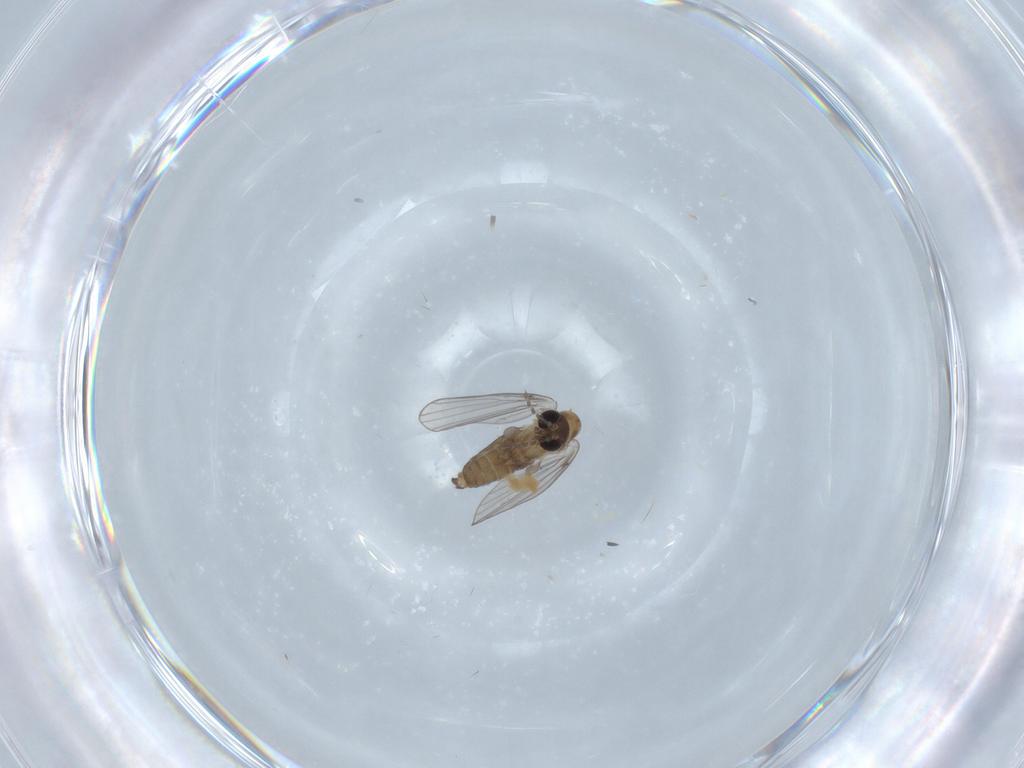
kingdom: Animalia
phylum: Arthropoda
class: Insecta
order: Diptera
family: Psychodidae
